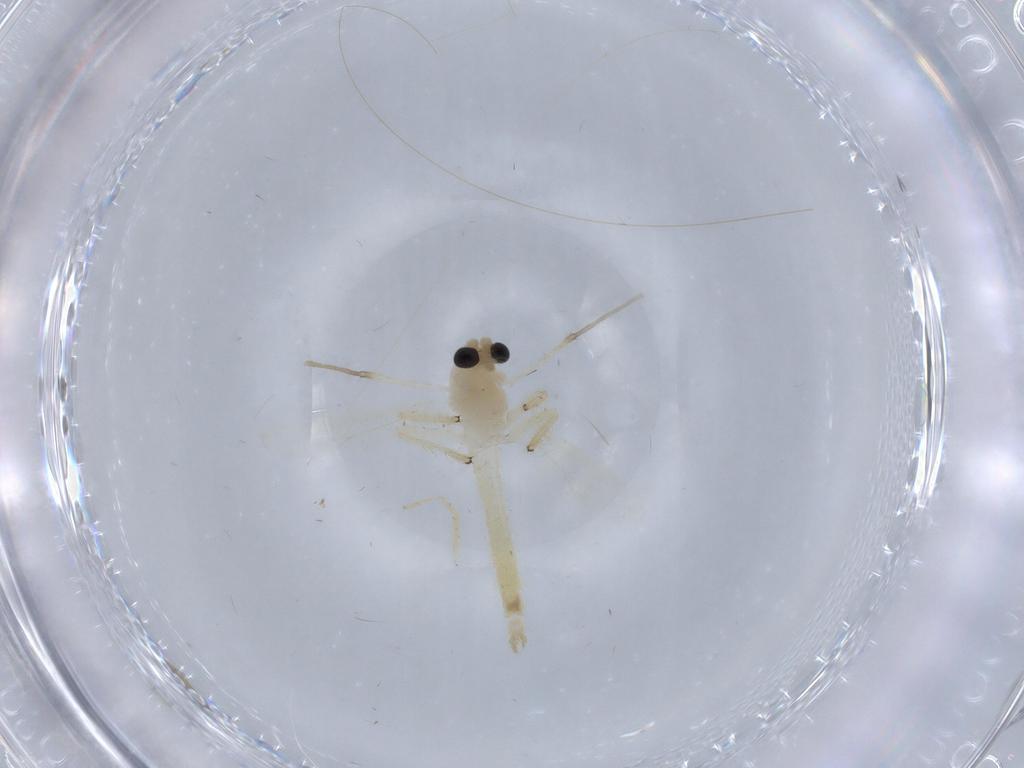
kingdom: Animalia
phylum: Arthropoda
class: Insecta
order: Diptera
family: Chironomidae
